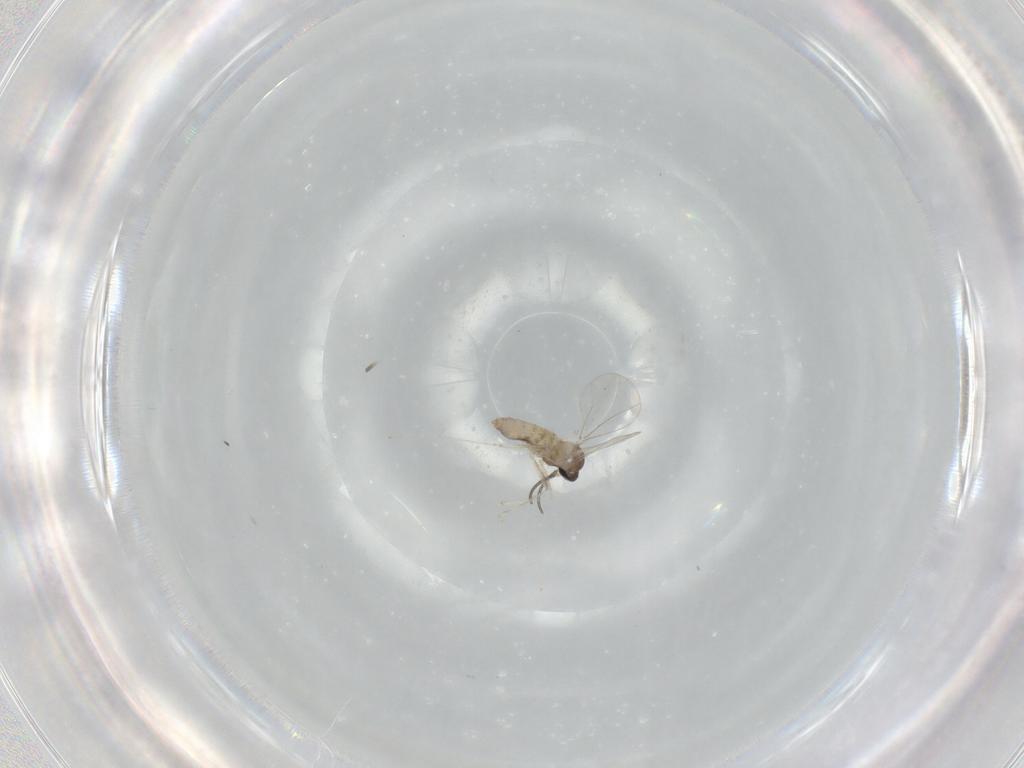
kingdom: Animalia
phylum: Arthropoda
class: Insecta
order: Diptera
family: Cecidomyiidae
